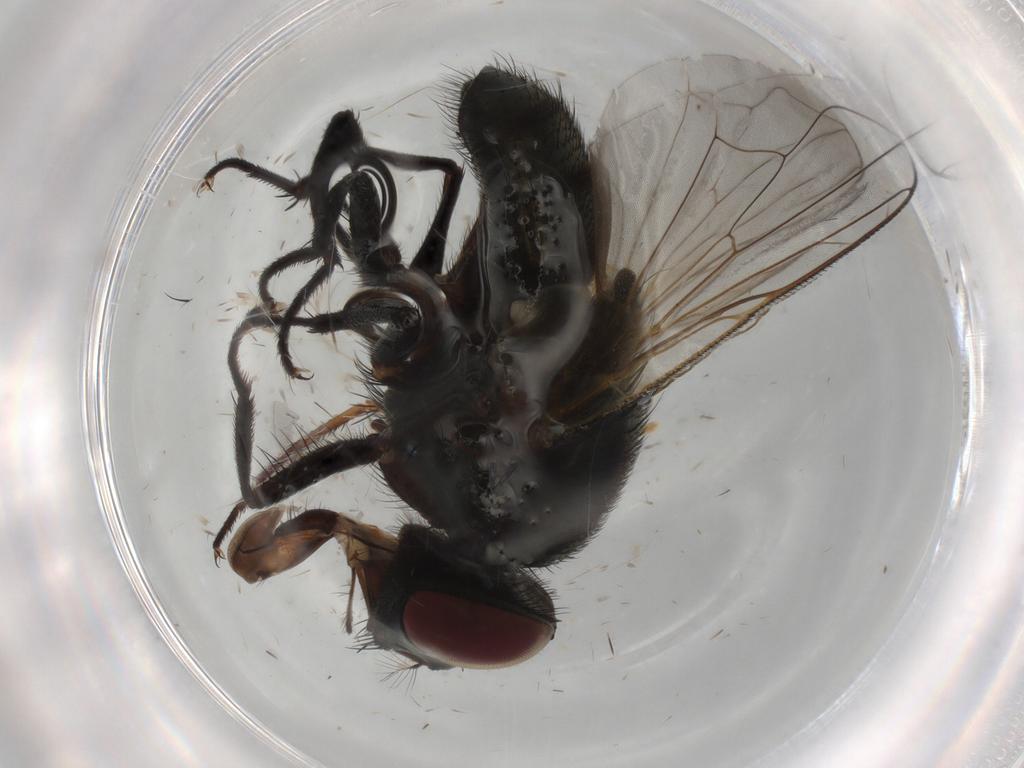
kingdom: Animalia
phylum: Arthropoda
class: Insecta
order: Diptera
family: Muscidae
